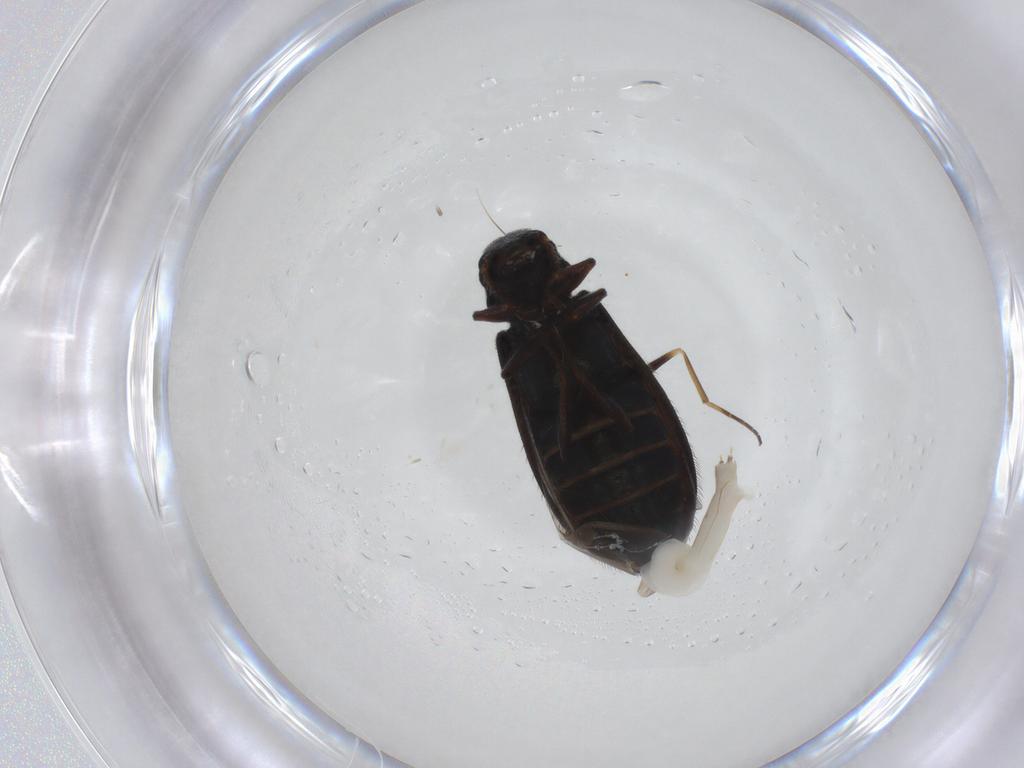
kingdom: Animalia
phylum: Arthropoda
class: Insecta
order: Coleoptera
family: Melyridae
